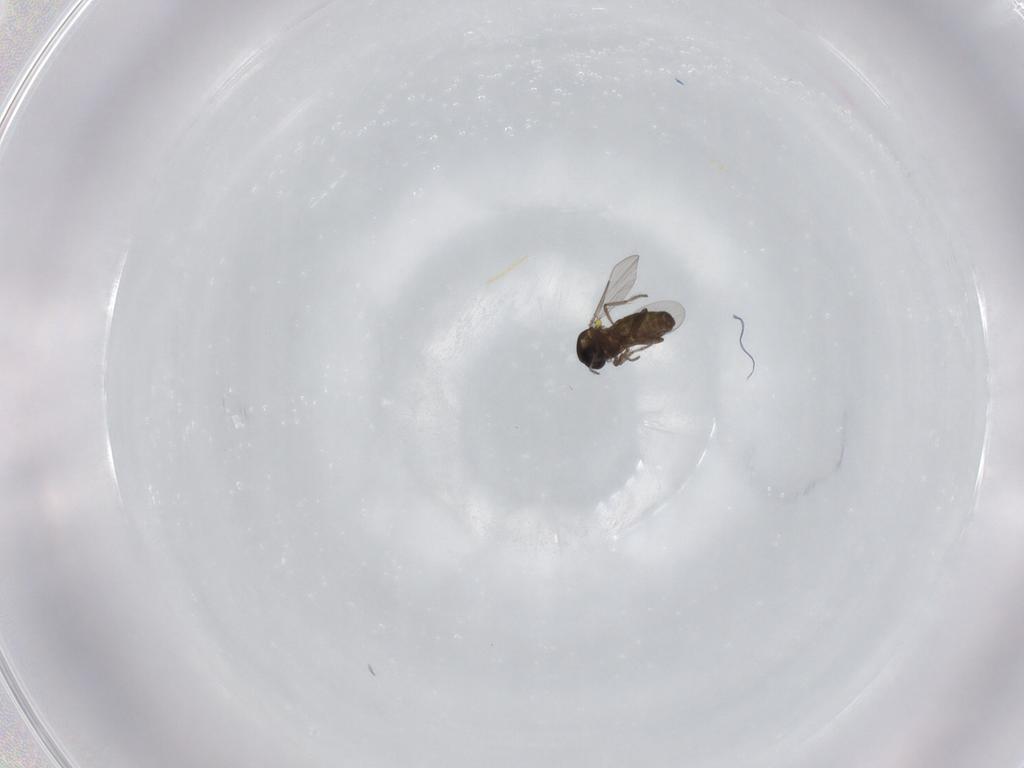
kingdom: Animalia
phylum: Arthropoda
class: Insecta
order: Diptera
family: Ceratopogonidae
